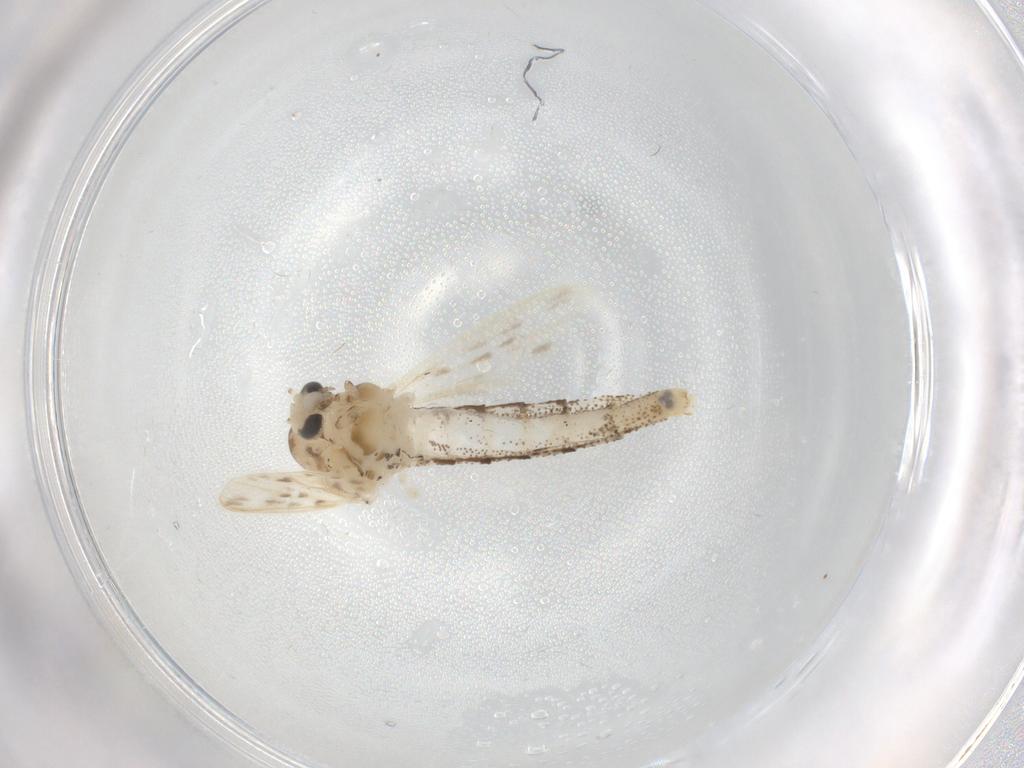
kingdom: Animalia
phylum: Arthropoda
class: Insecta
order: Diptera
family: Chaoboridae
